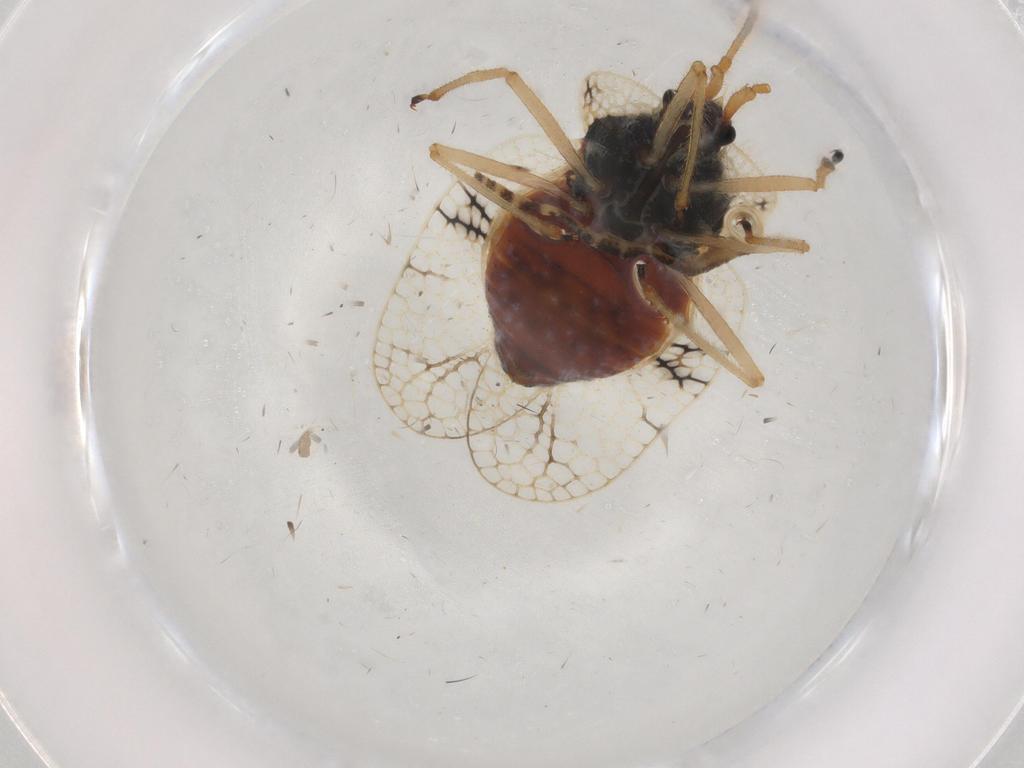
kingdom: Animalia
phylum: Arthropoda
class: Insecta
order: Hemiptera
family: Tingidae
